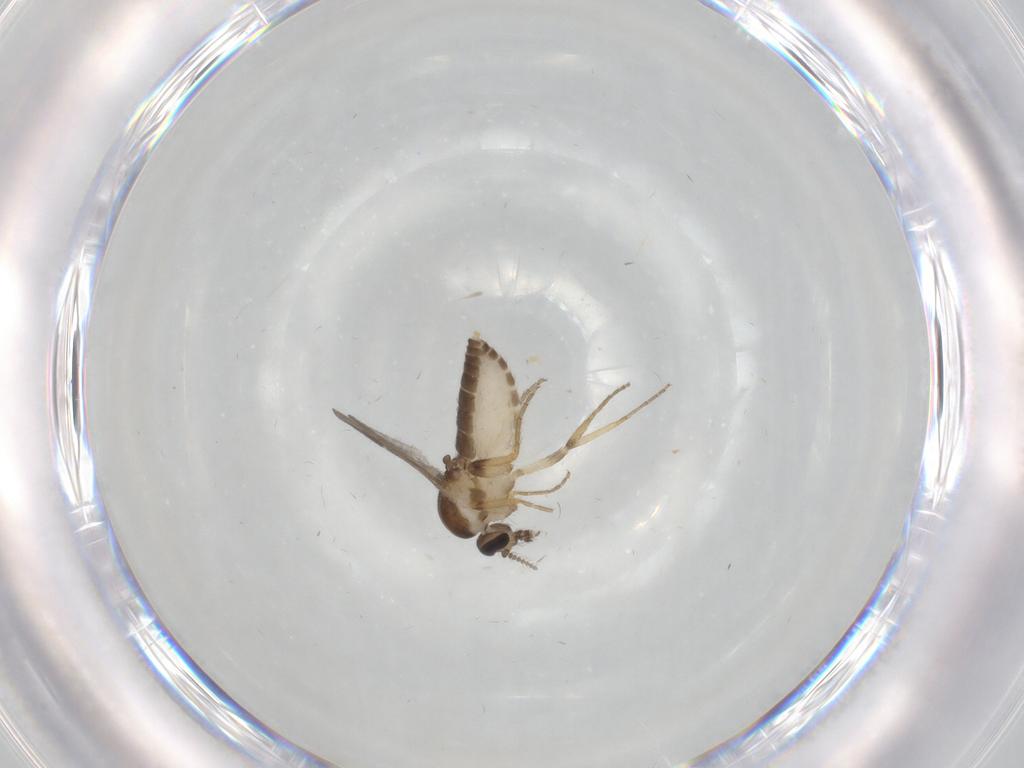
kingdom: Animalia
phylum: Arthropoda
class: Insecta
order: Diptera
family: Ceratopogonidae
